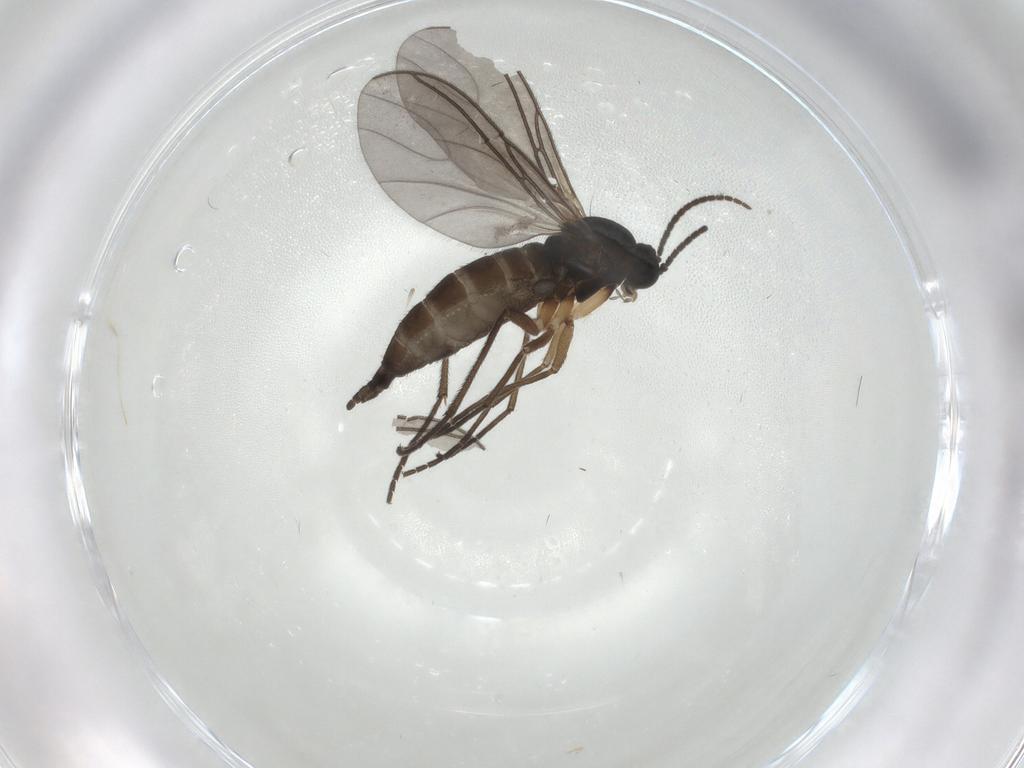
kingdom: Animalia
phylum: Arthropoda
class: Insecta
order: Diptera
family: Sciaridae
